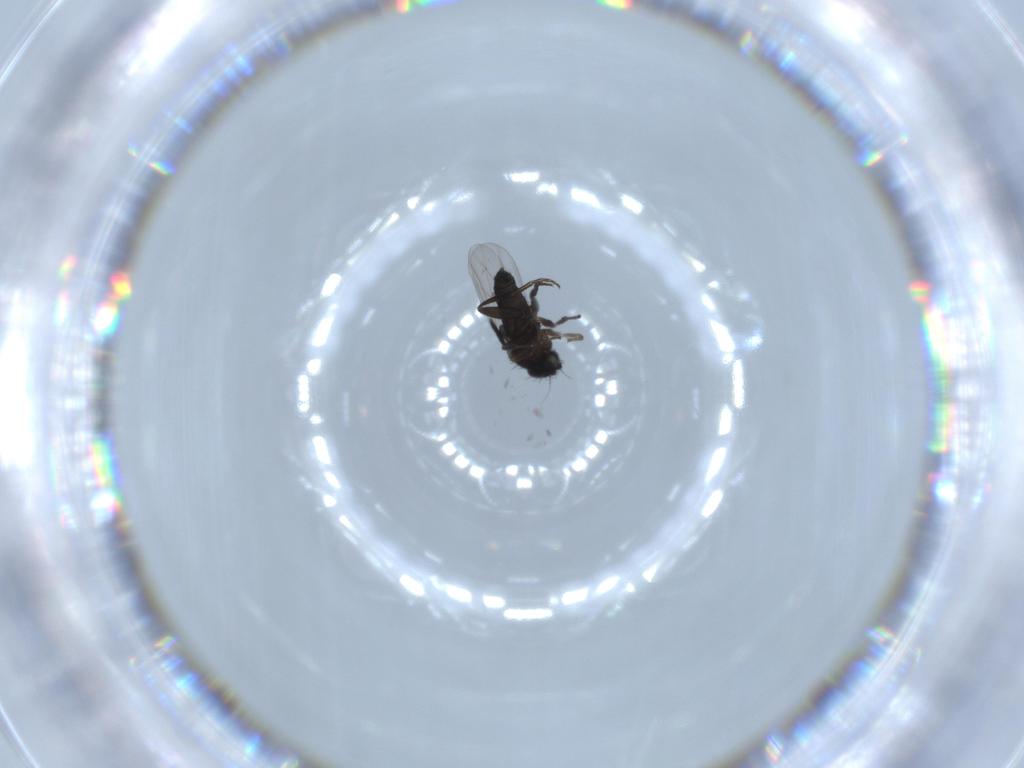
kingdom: Animalia
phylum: Arthropoda
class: Insecta
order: Diptera
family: Phoridae
